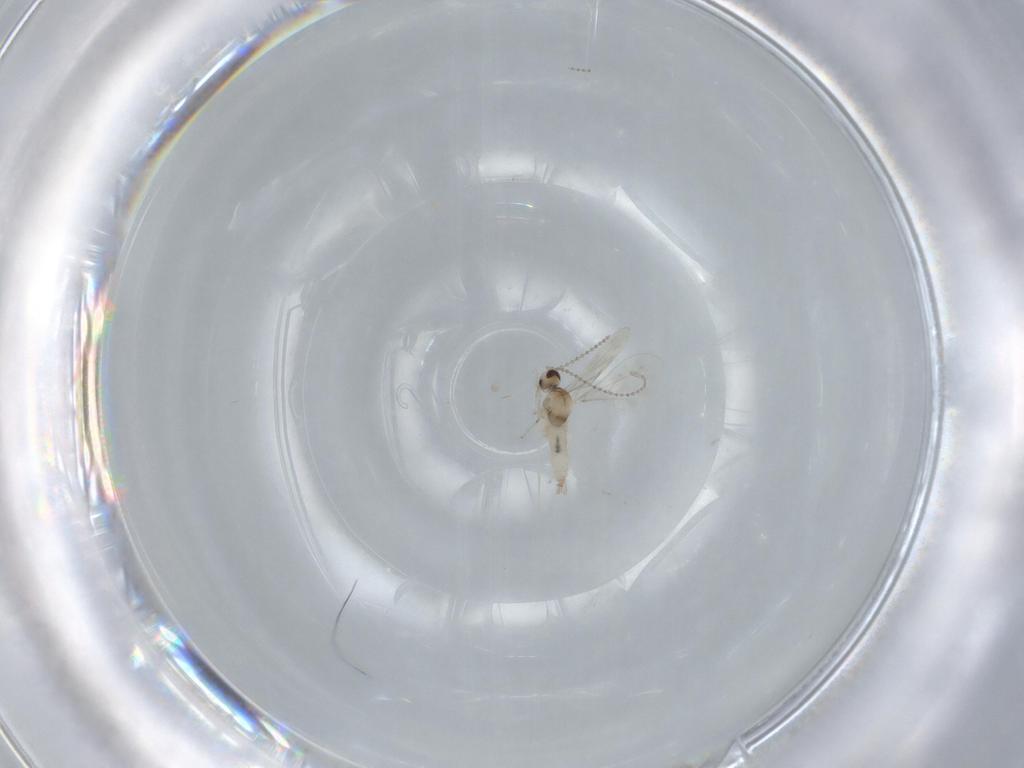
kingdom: Animalia
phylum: Arthropoda
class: Insecta
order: Diptera
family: Cecidomyiidae
